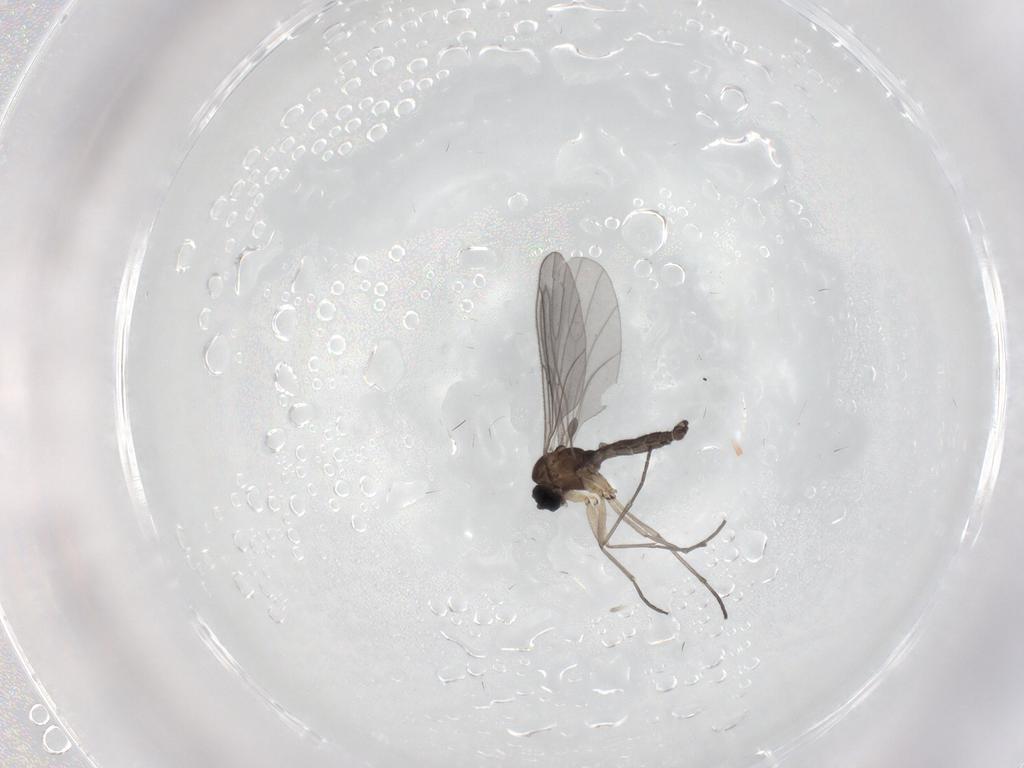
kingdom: Animalia
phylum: Arthropoda
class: Insecta
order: Diptera
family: Sciaridae
